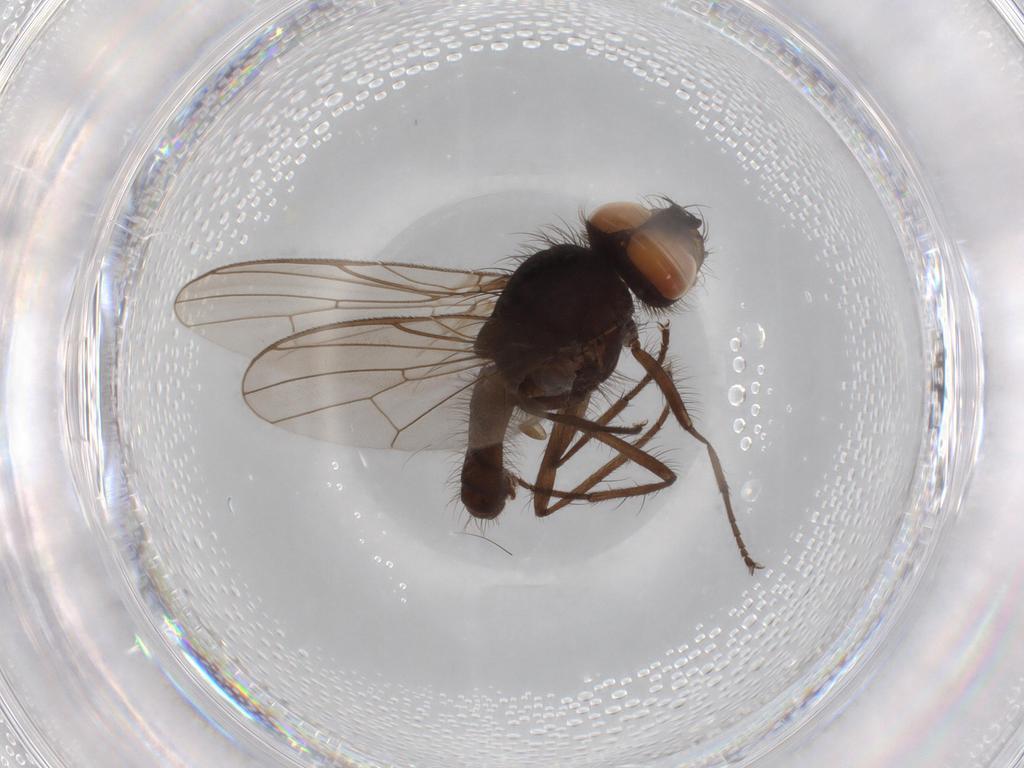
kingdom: Animalia
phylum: Arthropoda
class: Insecta
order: Diptera
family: Anthomyiidae
